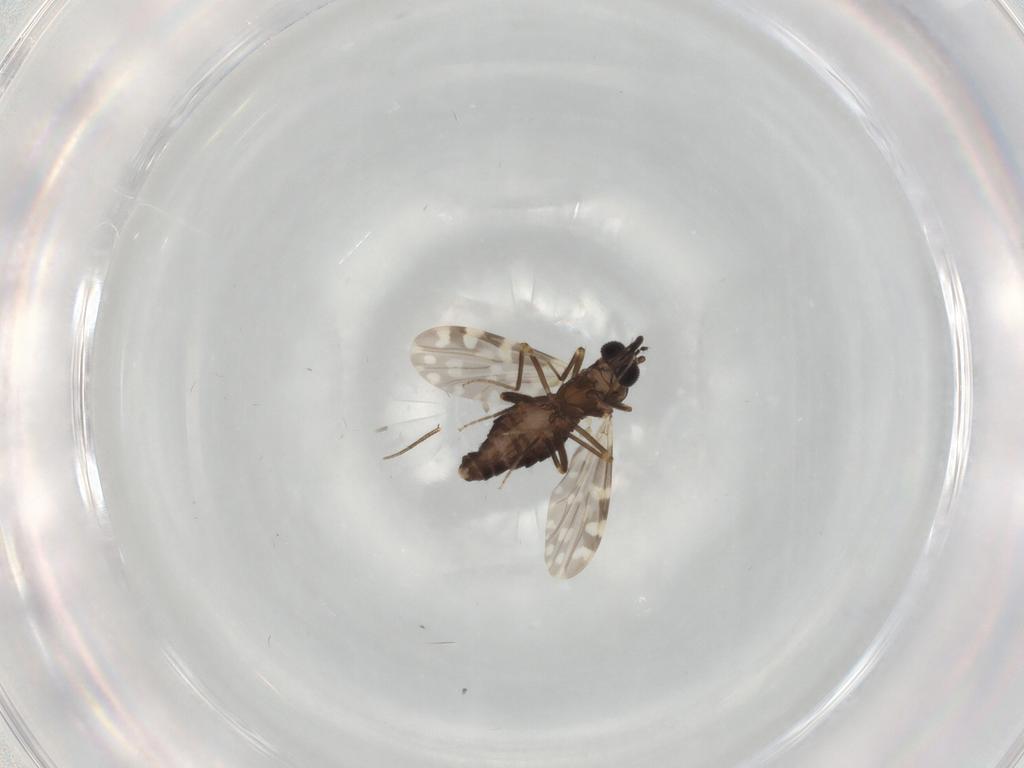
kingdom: Animalia
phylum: Arthropoda
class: Insecta
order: Diptera
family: Ceratopogonidae
